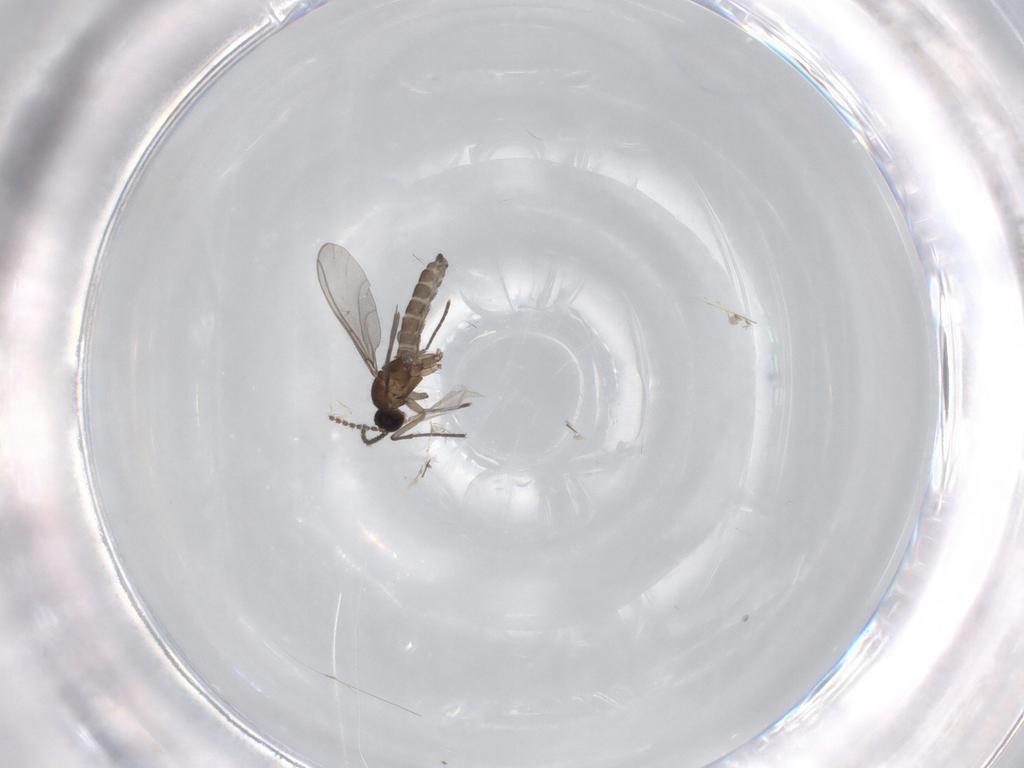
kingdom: Animalia
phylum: Arthropoda
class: Insecta
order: Diptera
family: Limoniidae
